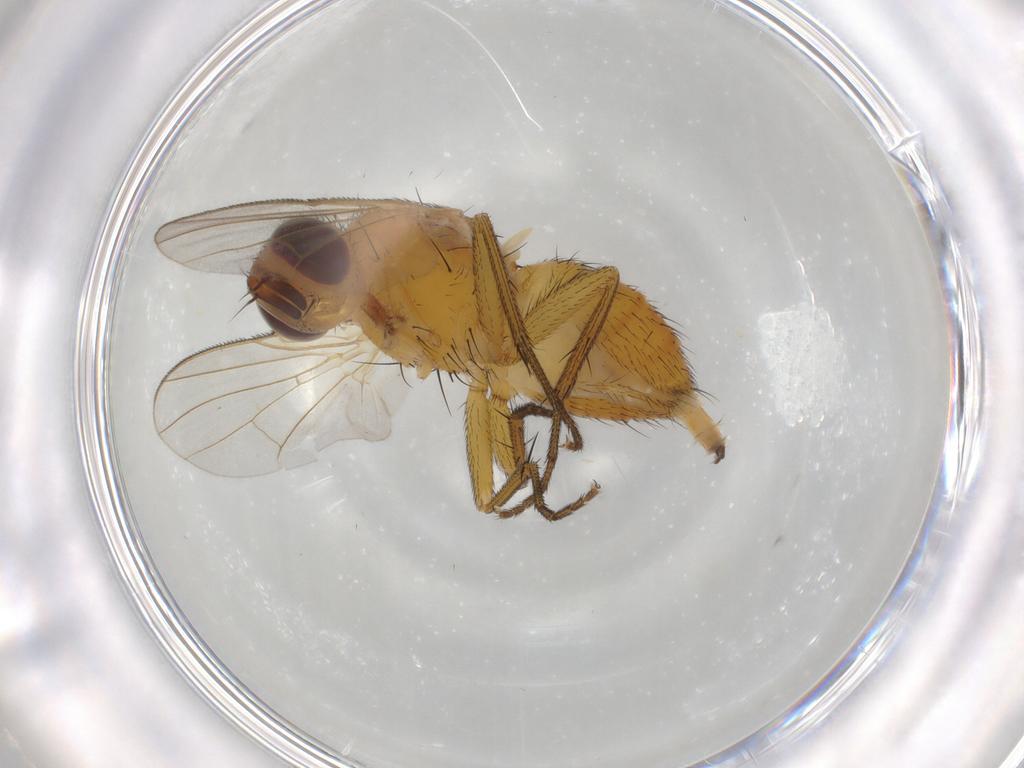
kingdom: Animalia
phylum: Arthropoda
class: Insecta
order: Diptera
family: Muscidae
